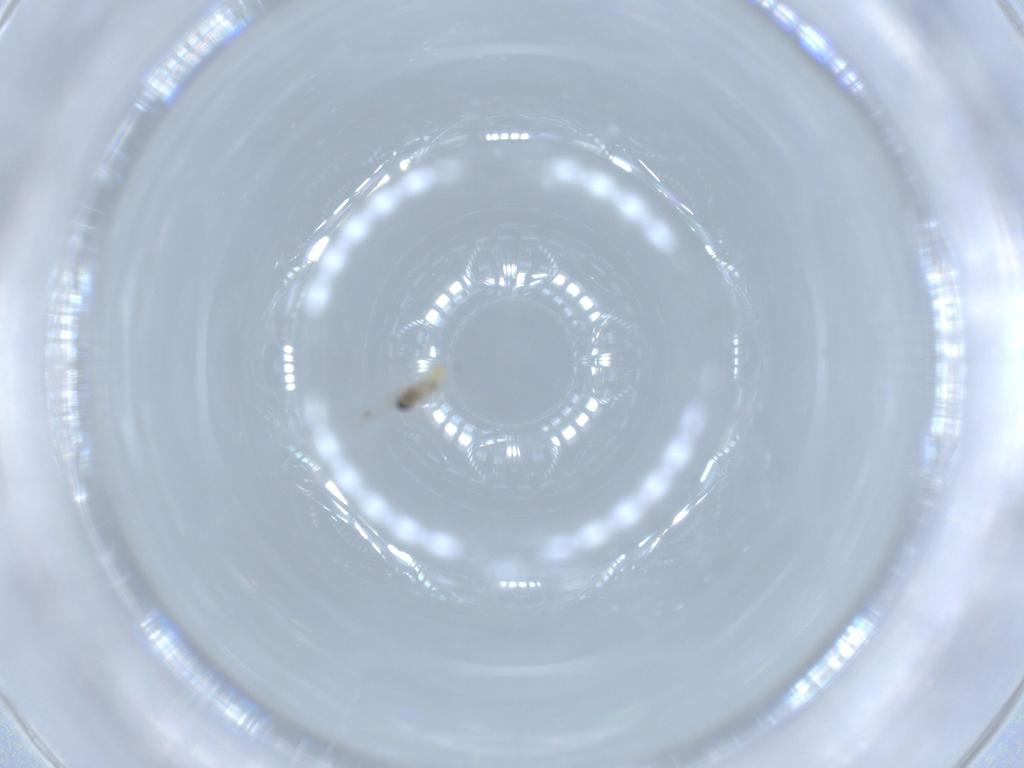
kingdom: Animalia
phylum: Arthropoda
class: Insecta
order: Diptera
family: Cecidomyiidae
